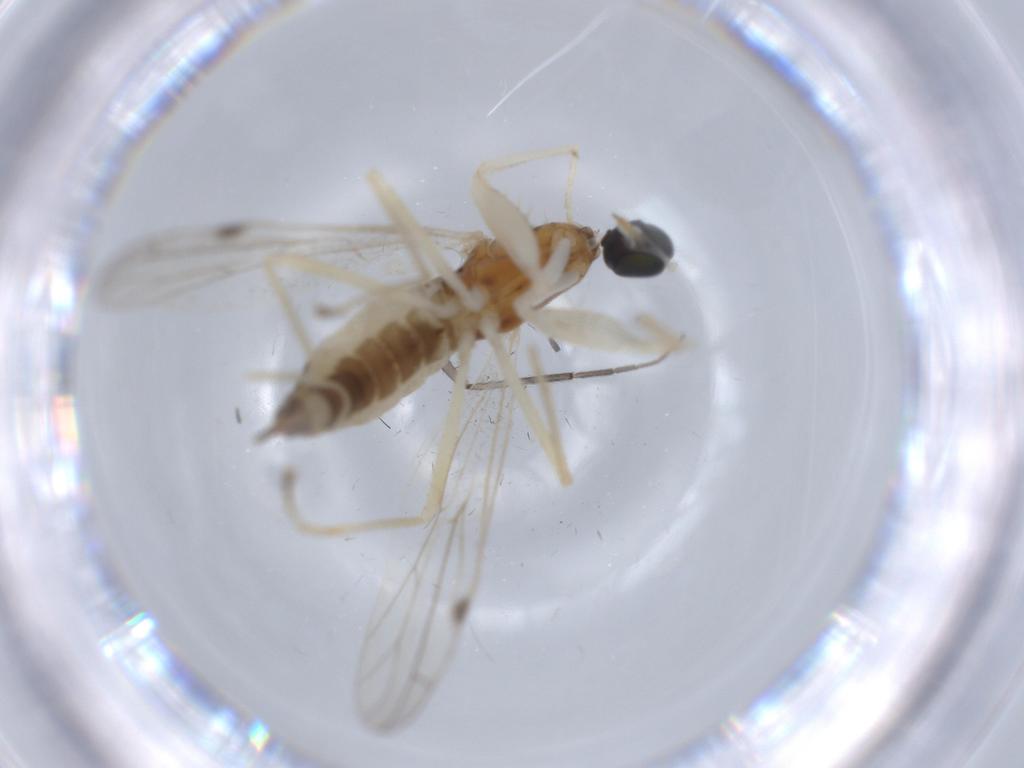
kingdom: Animalia
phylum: Arthropoda
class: Insecta
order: Diptera
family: Empididae
